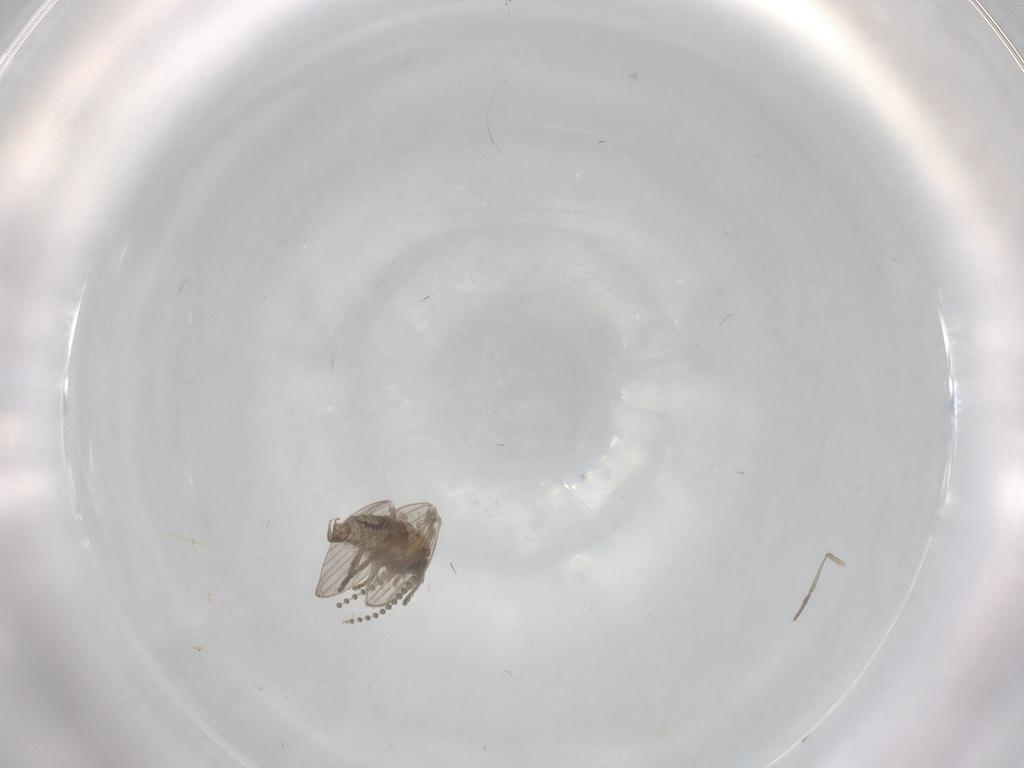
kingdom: Animalia
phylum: Arthropoda
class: Insecta
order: Diptera
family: Psychodidae
